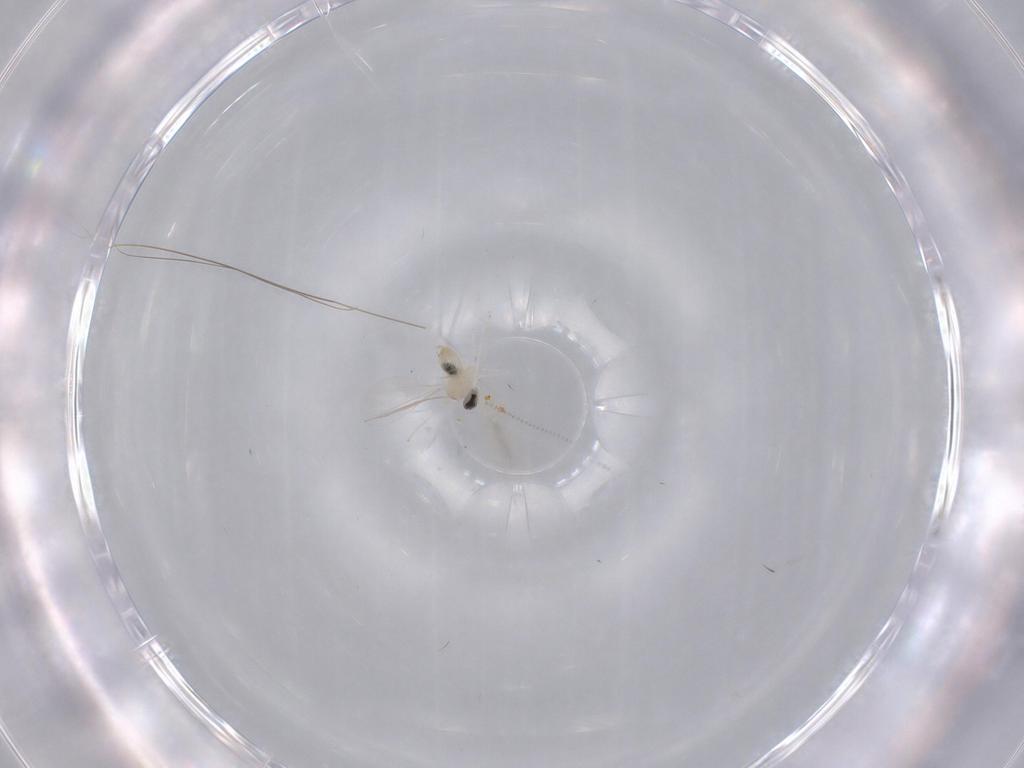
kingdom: Animalia
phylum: Arthropoda
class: Insecta
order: Diptera
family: Cecidomyiidae
